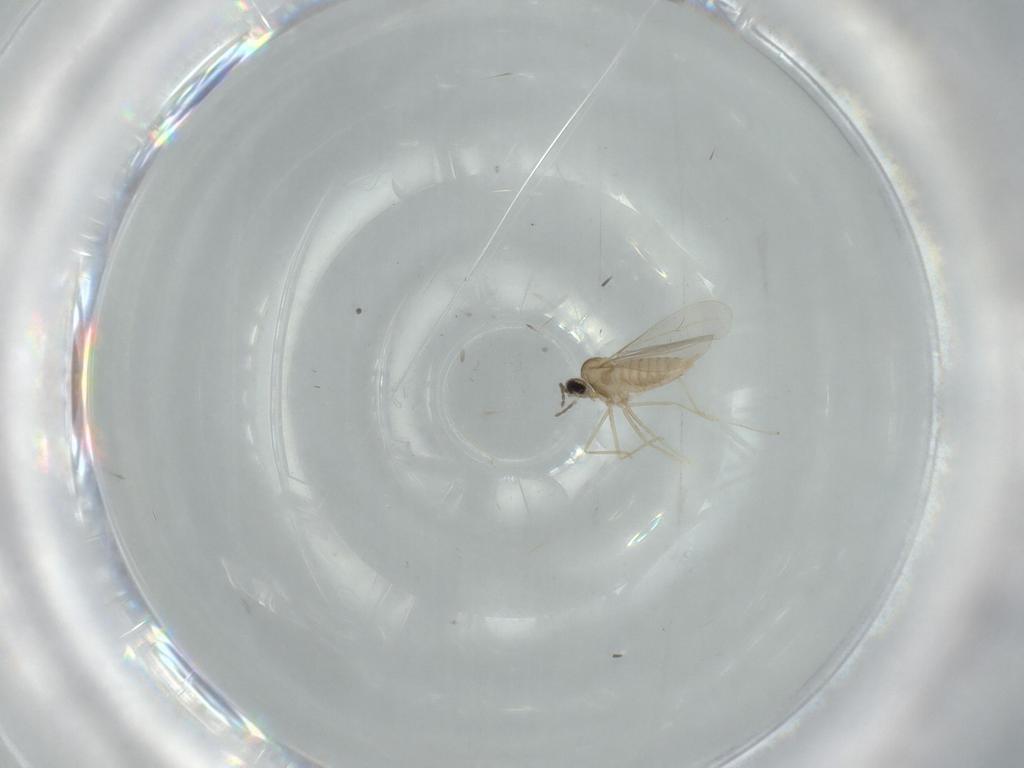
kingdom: Animalia
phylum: Arthropoda
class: Insecta
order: Diptera
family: Cecidomyiidae
